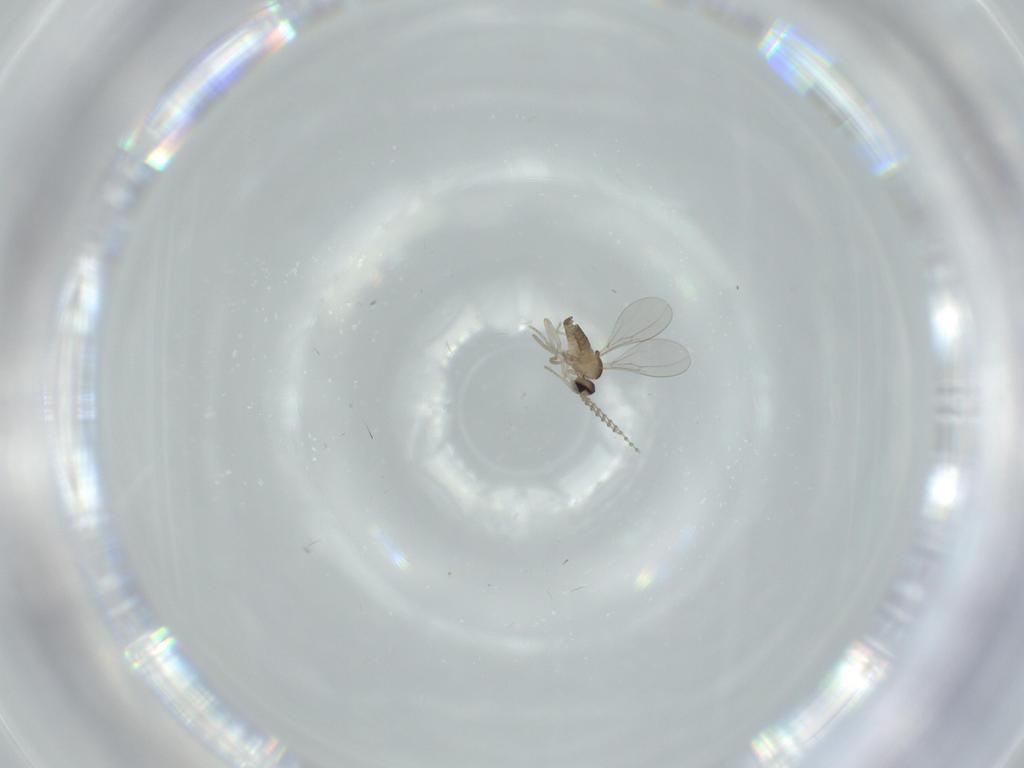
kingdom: Animalia
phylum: Arthropoda
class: Insecta
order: Diptera
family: Cecidomyiidae
